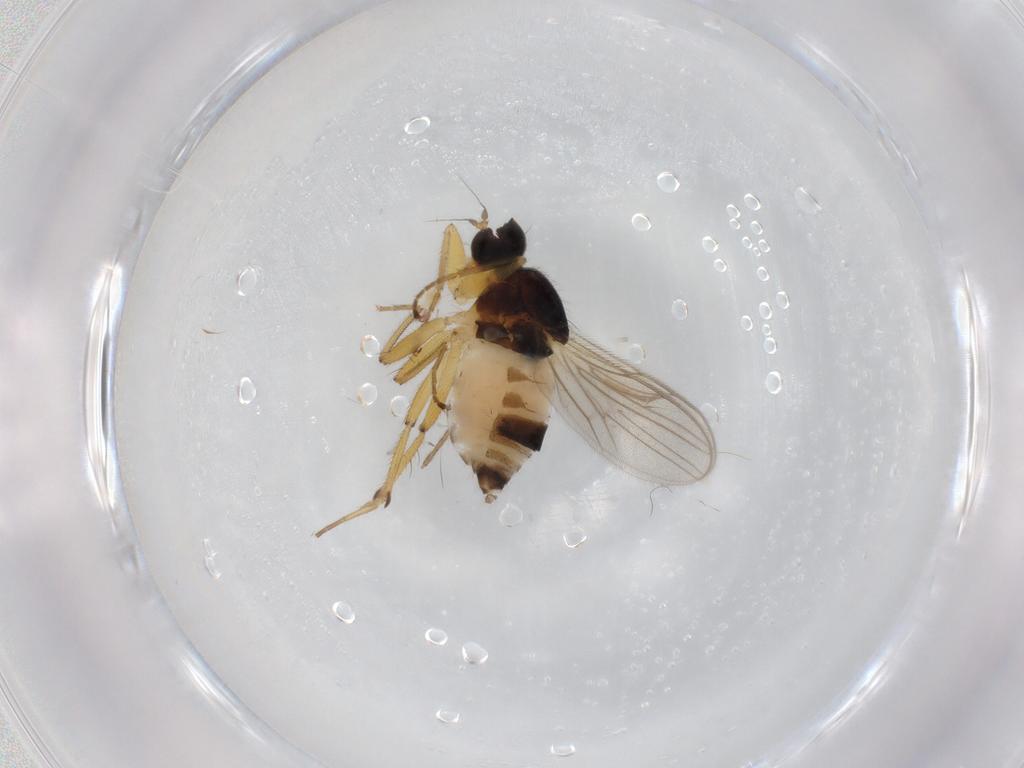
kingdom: Animalia
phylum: Arthropoda
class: Insecta
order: Diptera
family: Hybotidae
